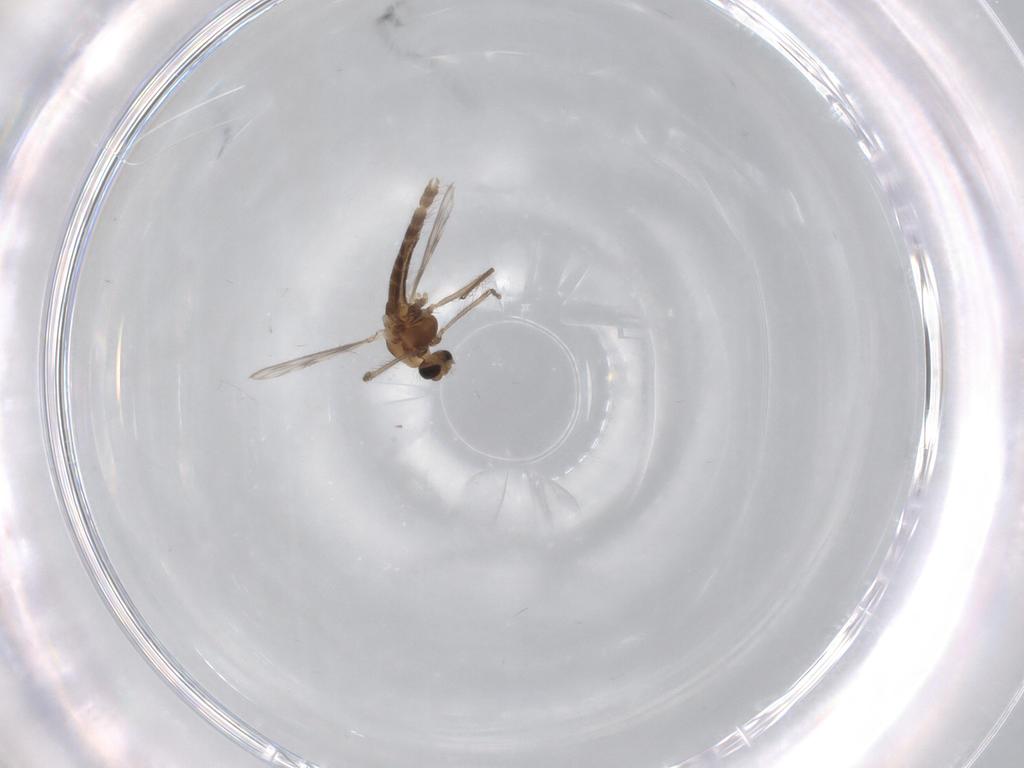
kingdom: Animalia
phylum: Arthropoda
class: Insecta
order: Diptera
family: Chironomidae
